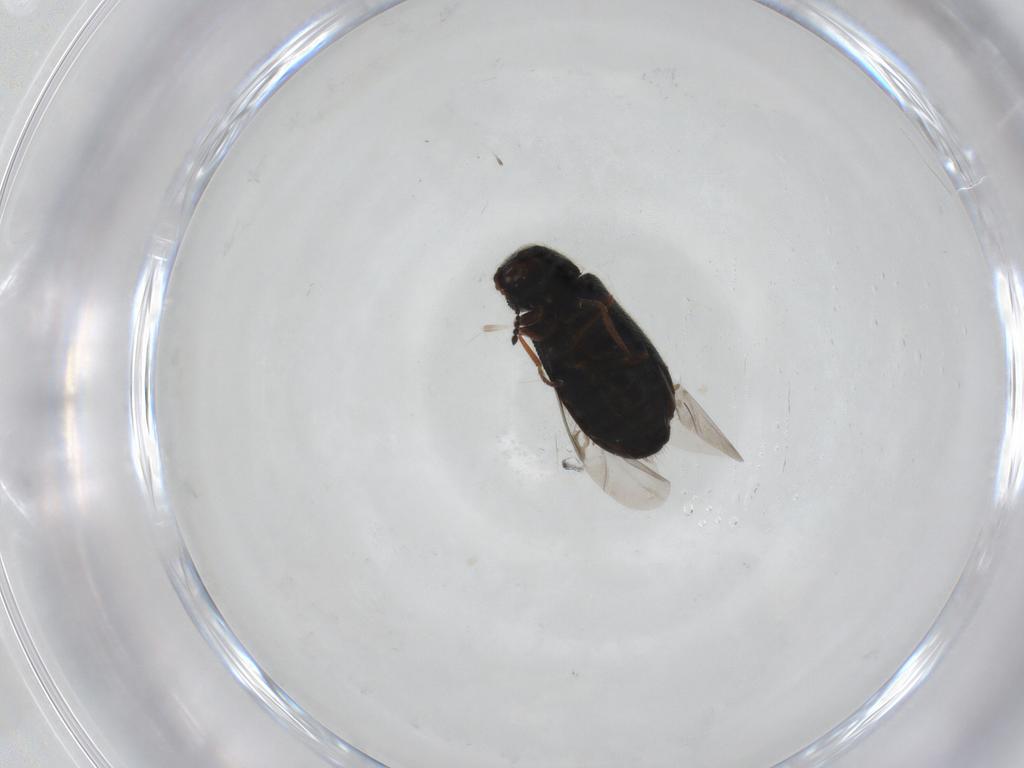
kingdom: Animalia
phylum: Arthropoda
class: Insecta
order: Coleoptera
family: Melyridae
